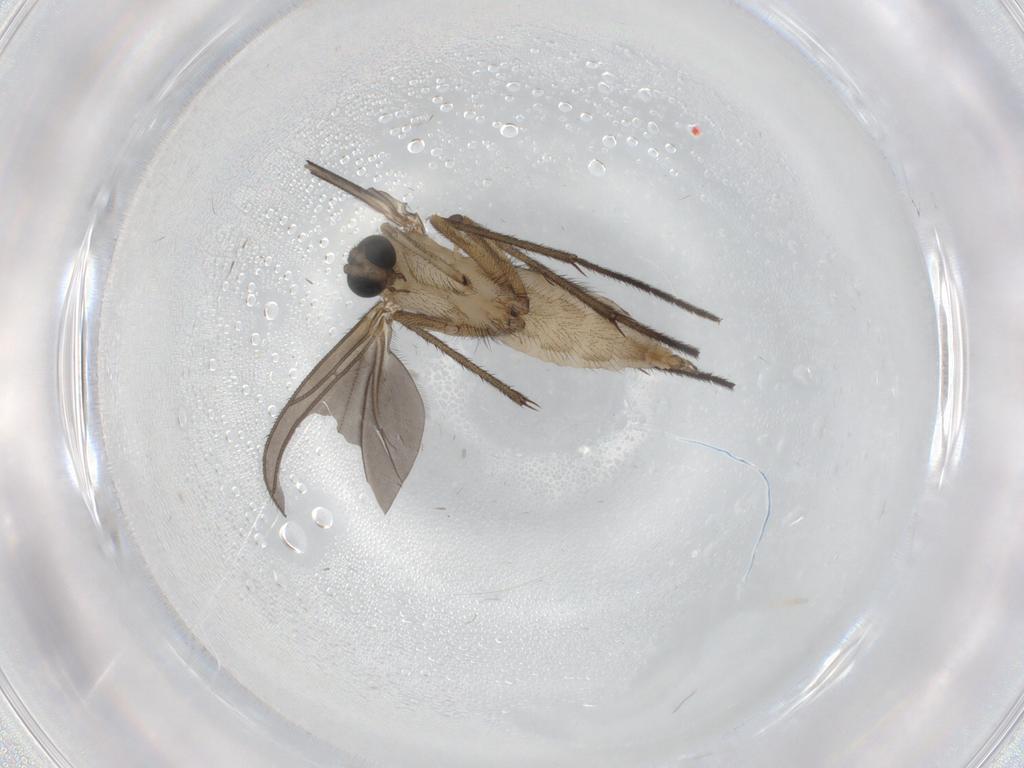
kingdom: Animalia
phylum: Arthropoda
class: Insecta
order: Diptera
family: Sciaridae
